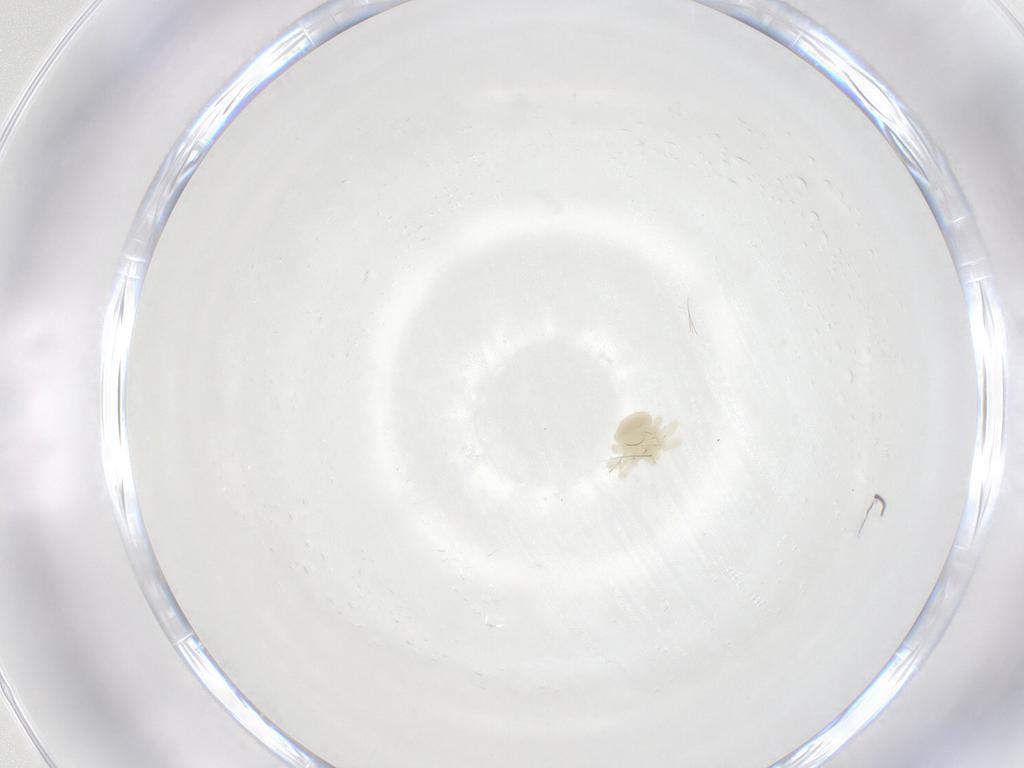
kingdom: Animalia
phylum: Arthropoda
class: Arachnida
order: Trombidiformes
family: Anystidae
